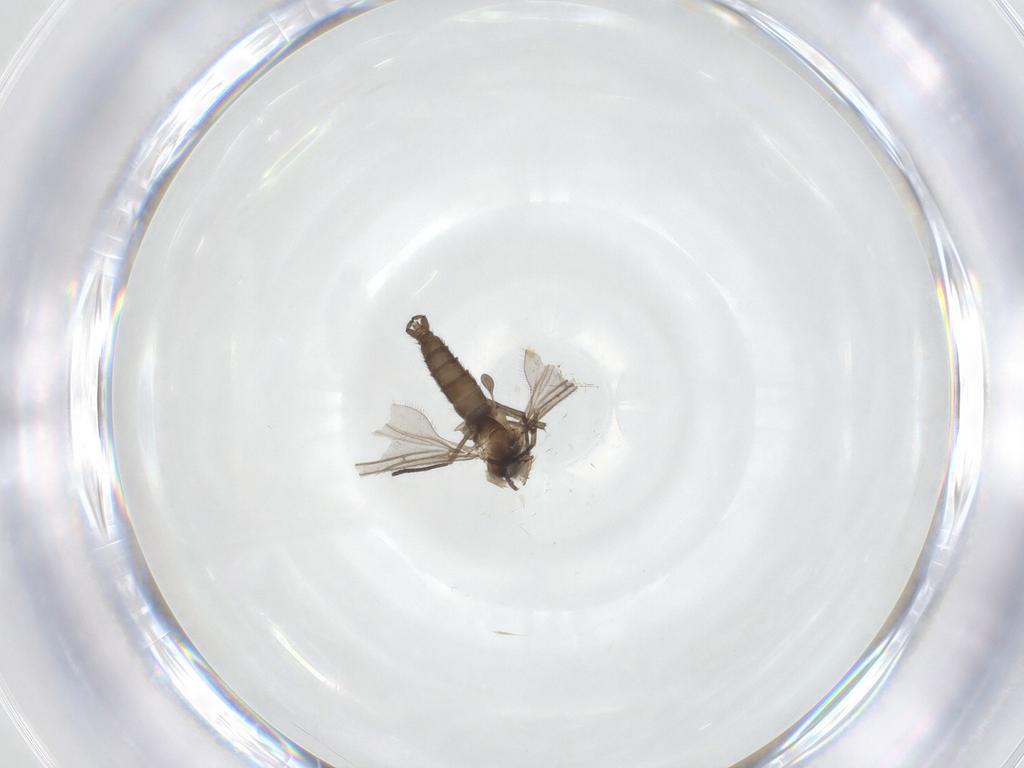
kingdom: Animalia
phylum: Arthropoda
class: Insecta
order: Diptera
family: Sciaridae
